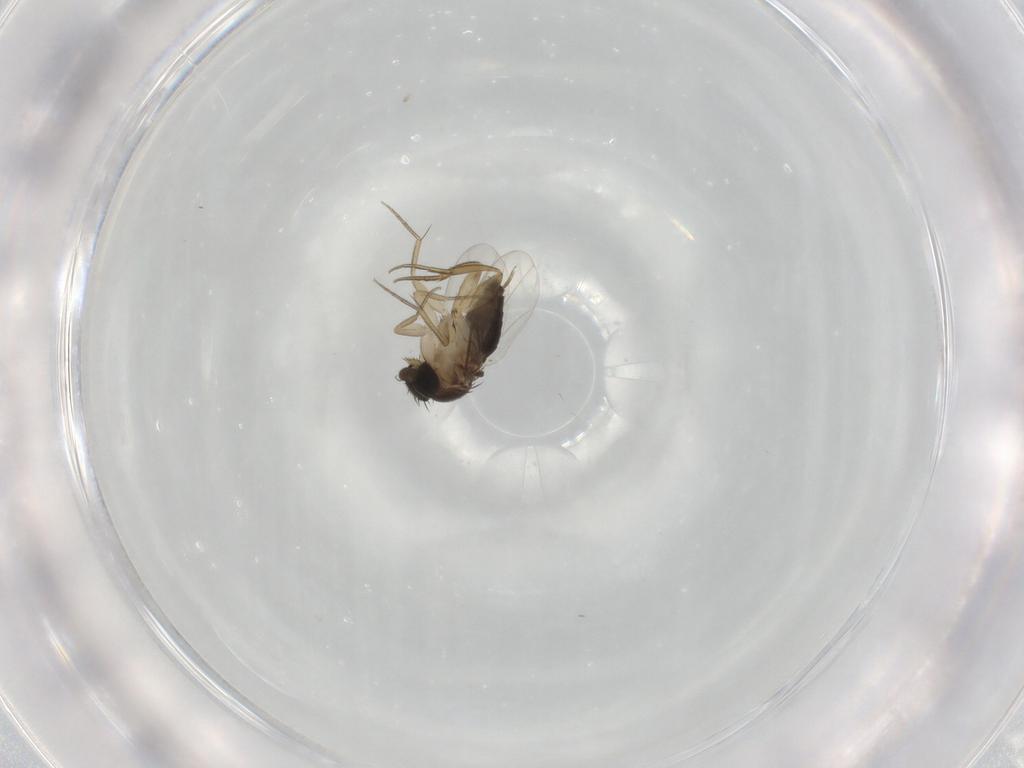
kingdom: Animalia
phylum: Arthropoda
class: Insecta
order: Diptera
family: Phoridae
